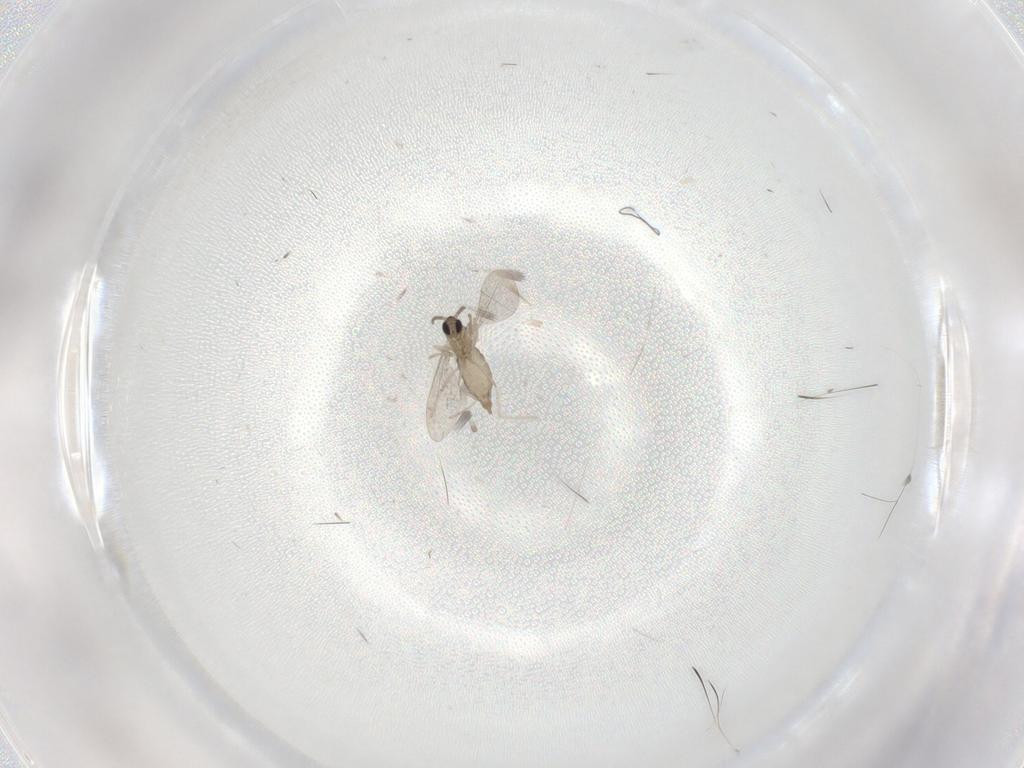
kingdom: Animalia
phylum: Arthropoda
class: Insecta
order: Diptera
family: Cecidomyiidae
